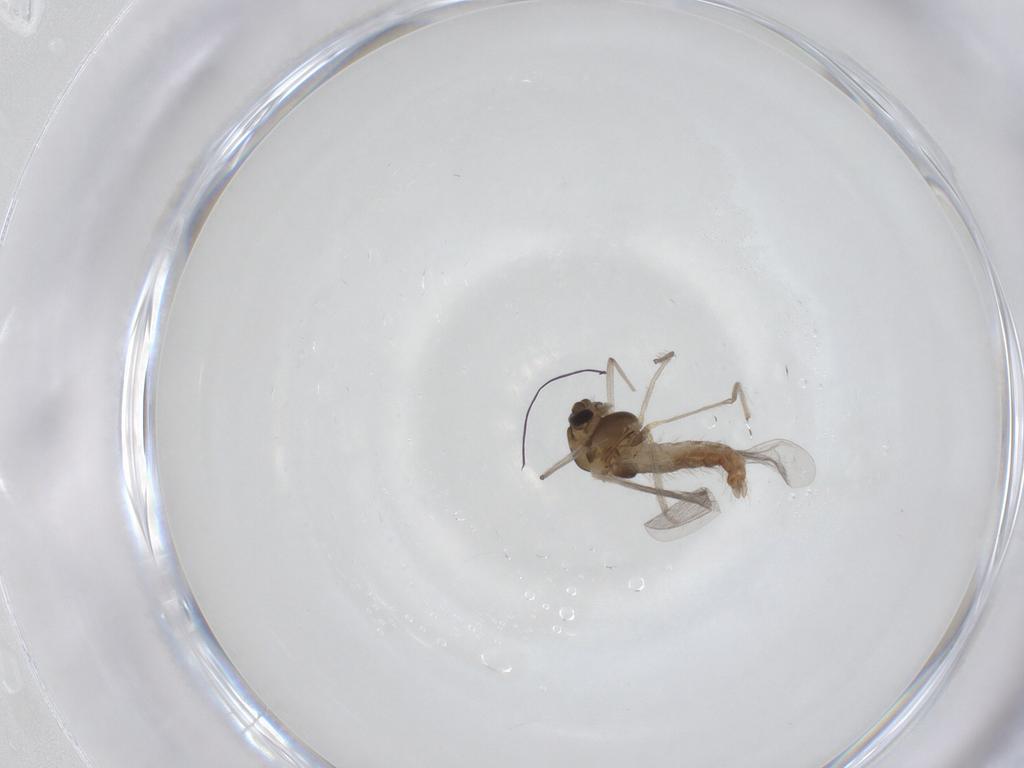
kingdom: Animalia
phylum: Arthropoda
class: Insecta
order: Diptera
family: Chironomidae
